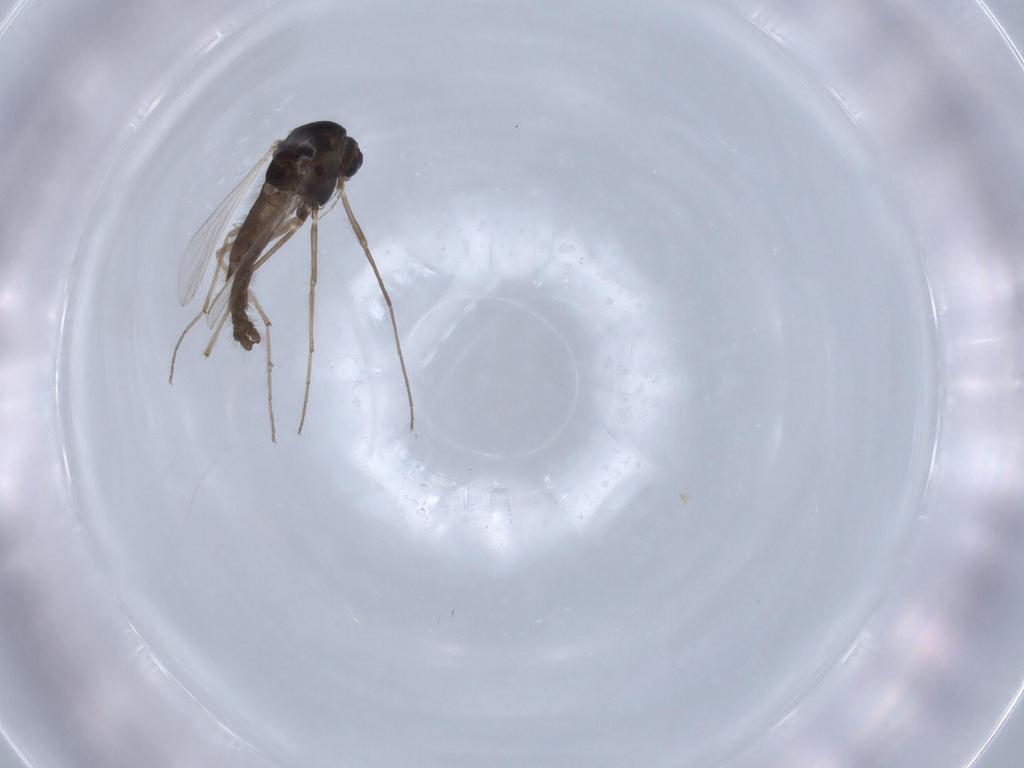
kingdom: Animalia
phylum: Arthropoda
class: Insecta
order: Diptera
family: Chironomidae
